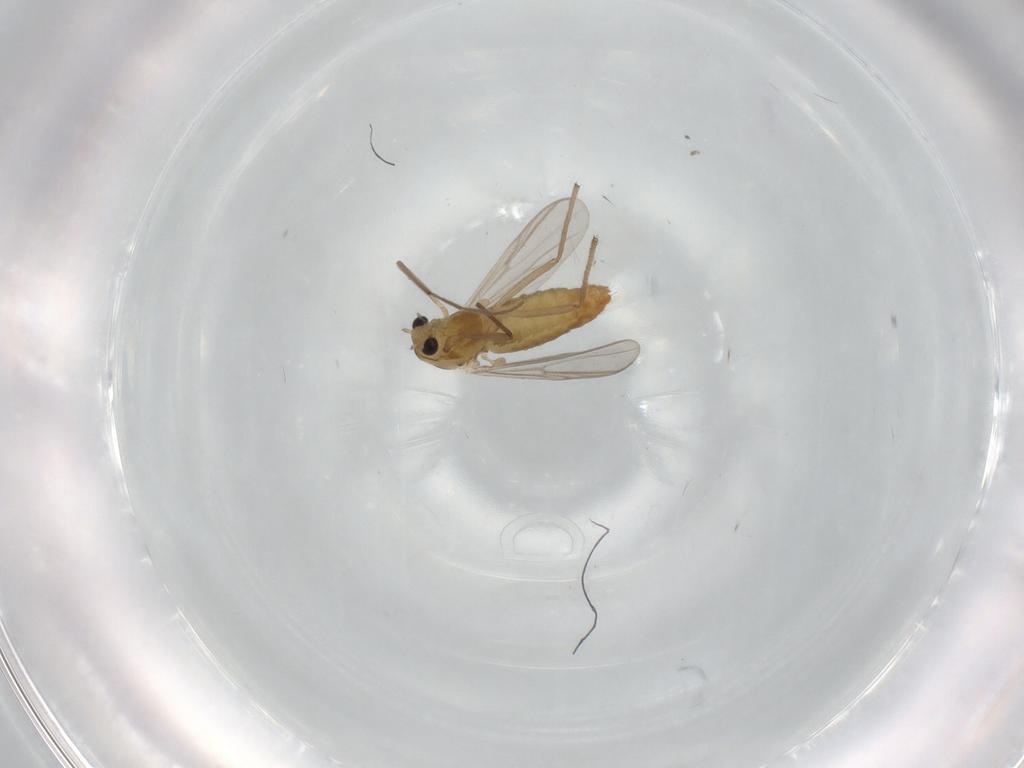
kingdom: Animalia
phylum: Arthropoda
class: Insecta
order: Diptera
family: Chironomidae
